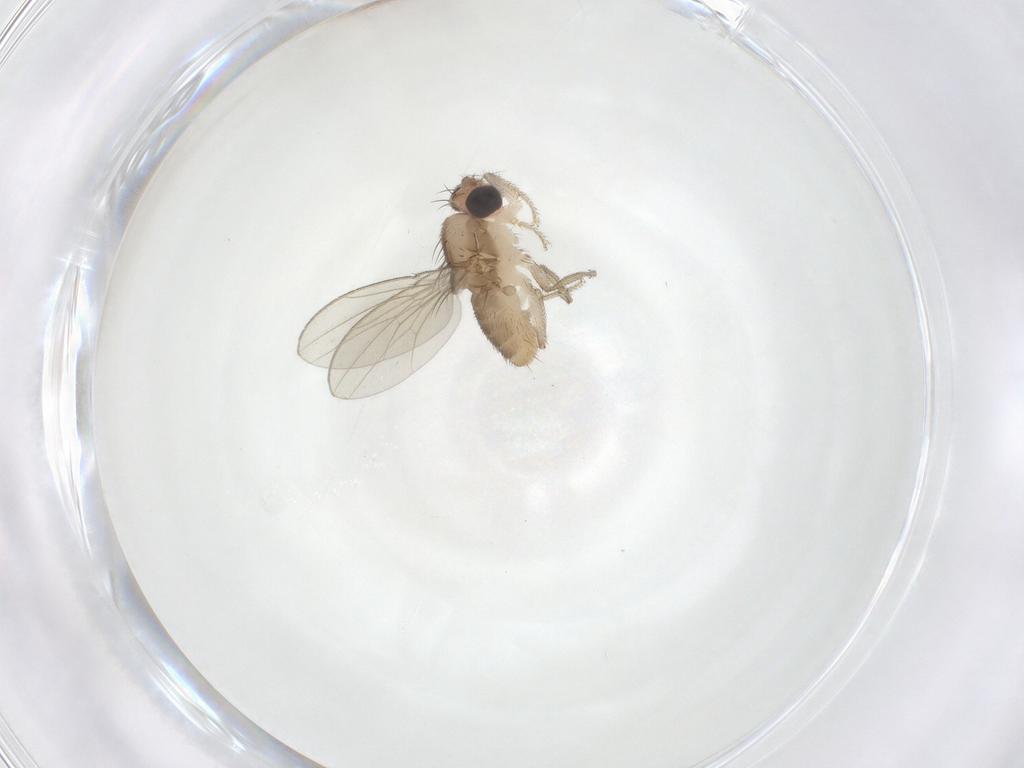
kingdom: Animalia
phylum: Arthropoda
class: Insecta
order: Diptera
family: Drosophilidae
